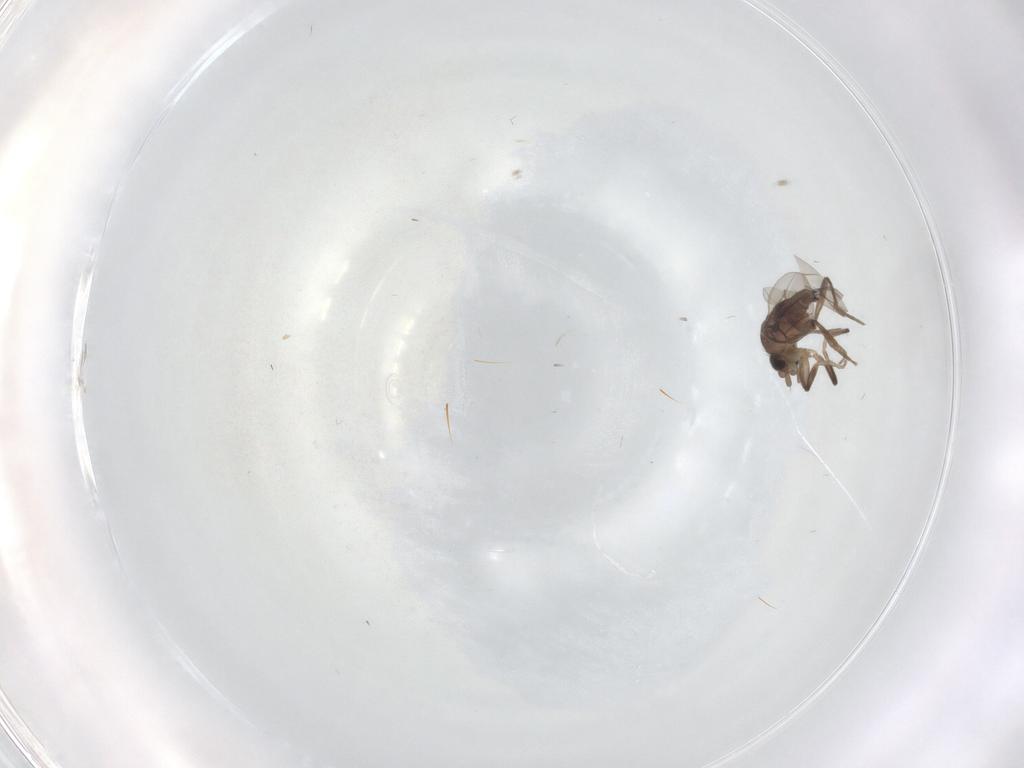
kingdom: Animalia
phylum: Arthropoda
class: Insecta
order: Diptera
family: Phoridae
